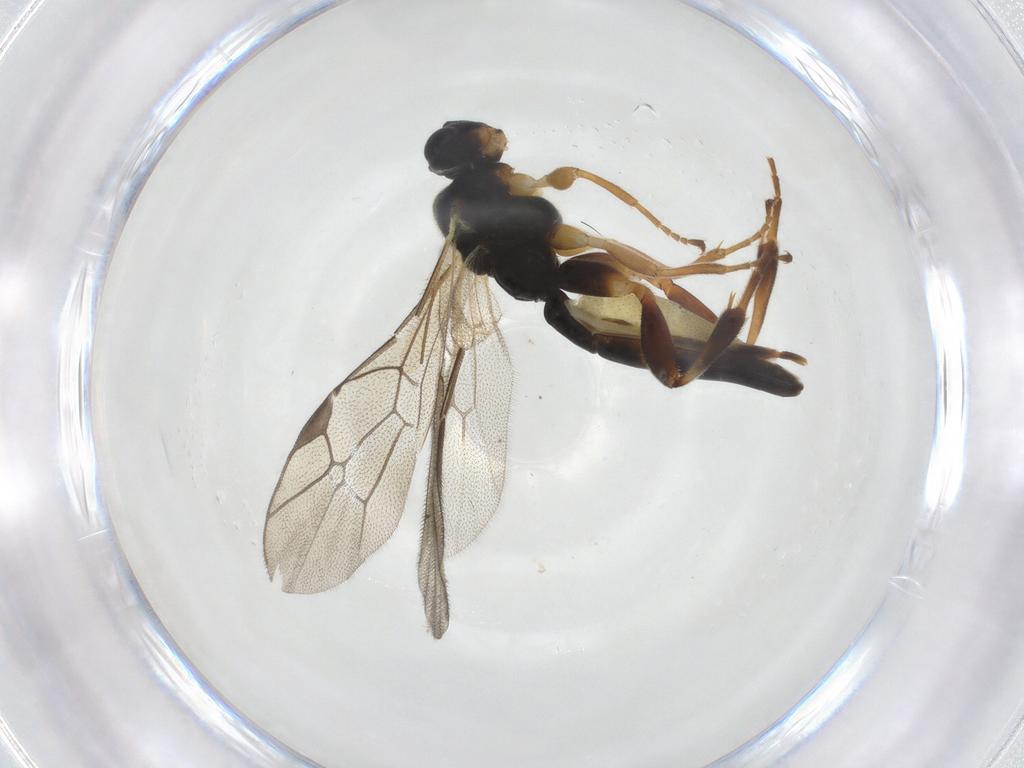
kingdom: Animalia
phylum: Arthropoda
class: Insecta
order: Hymenoptera
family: Ichneumonidae
